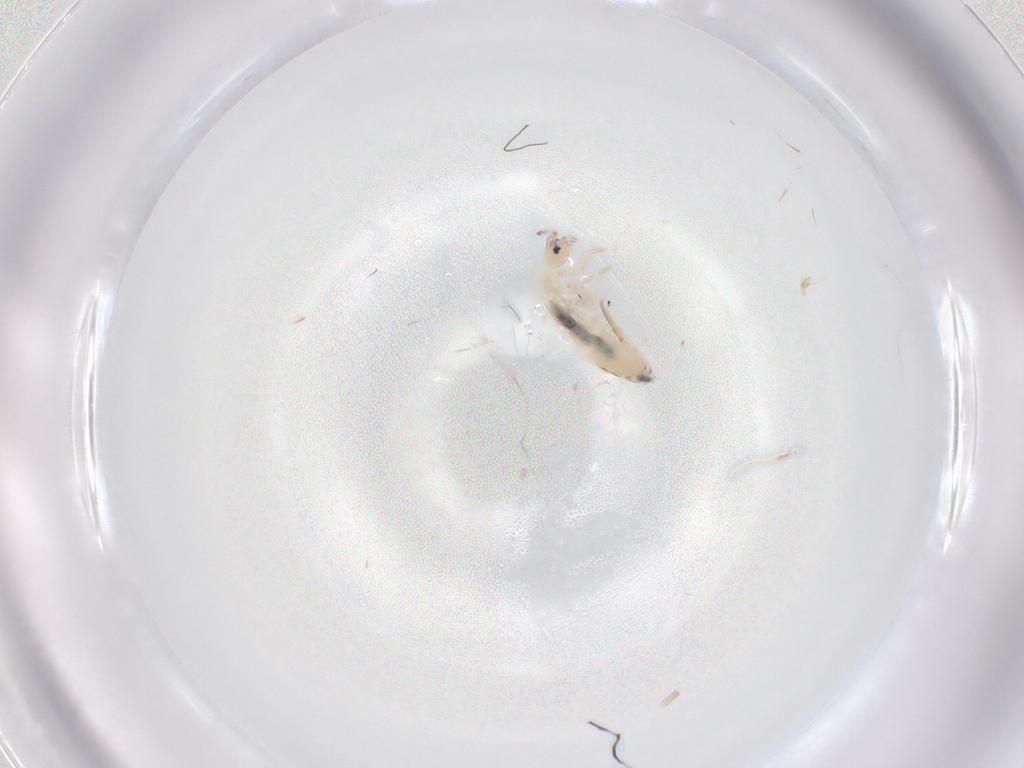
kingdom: Animalia
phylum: Arthropoda
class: Collembola
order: Entomobryomorpha
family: Entomobryidae
